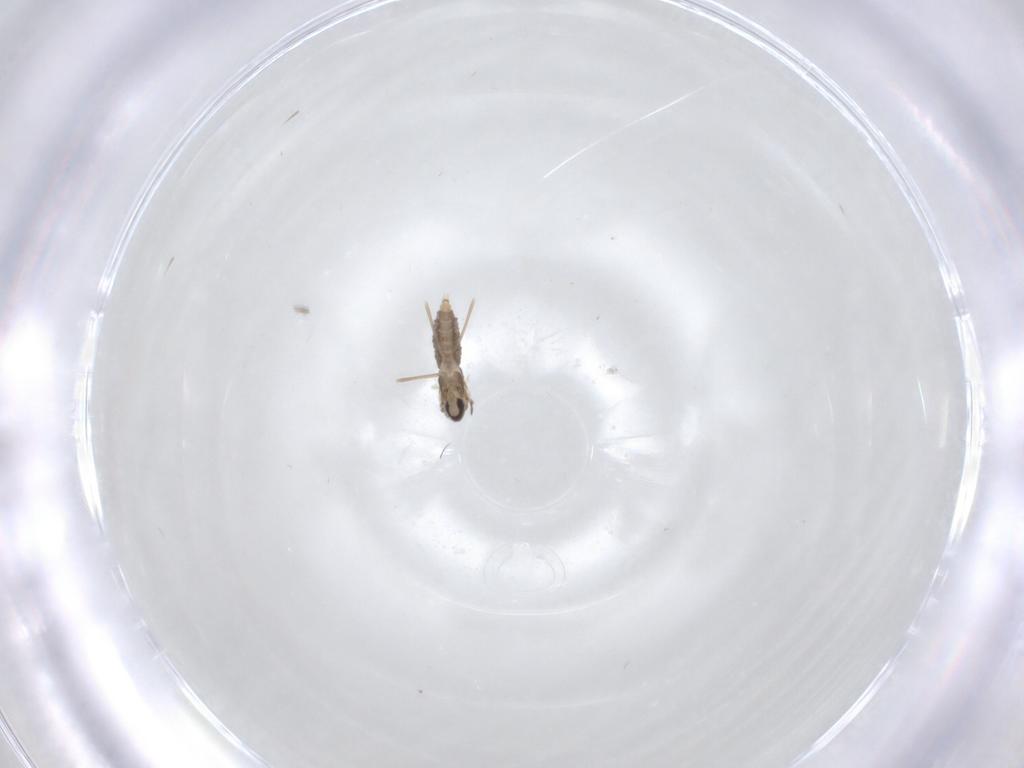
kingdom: Animalia
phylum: Arthropoda
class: Insecta
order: Diptera
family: Cecidomyiidae
